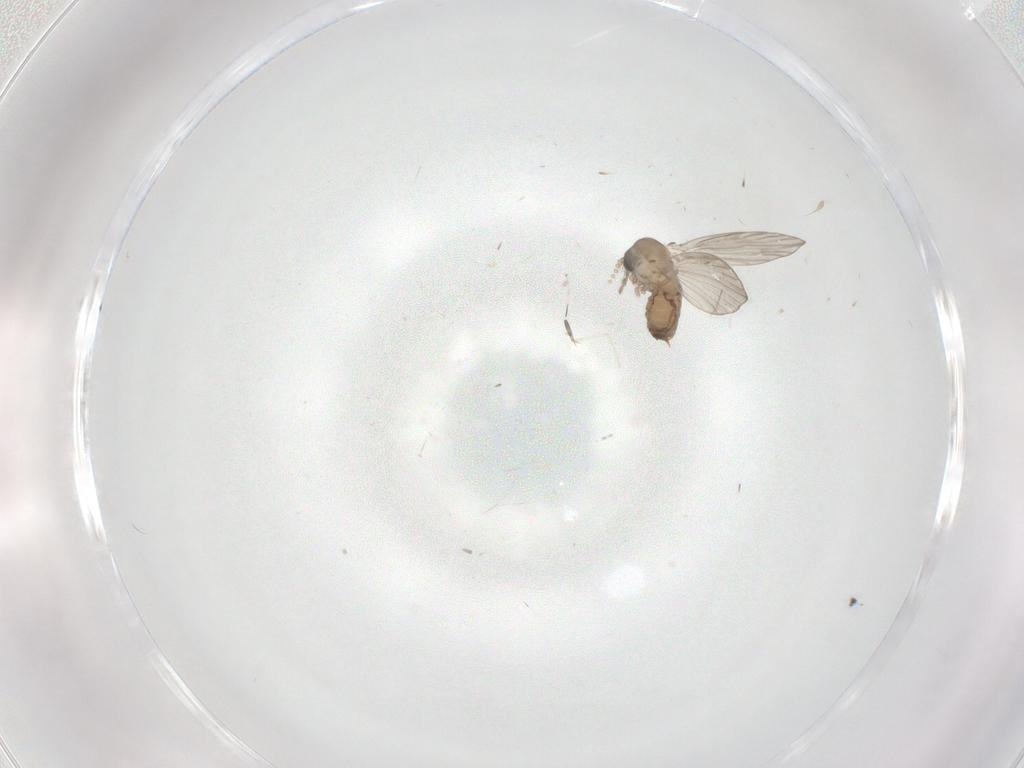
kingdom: Animalia
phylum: Arthropoda
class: Insecta
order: Diptera
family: Psychodidae
